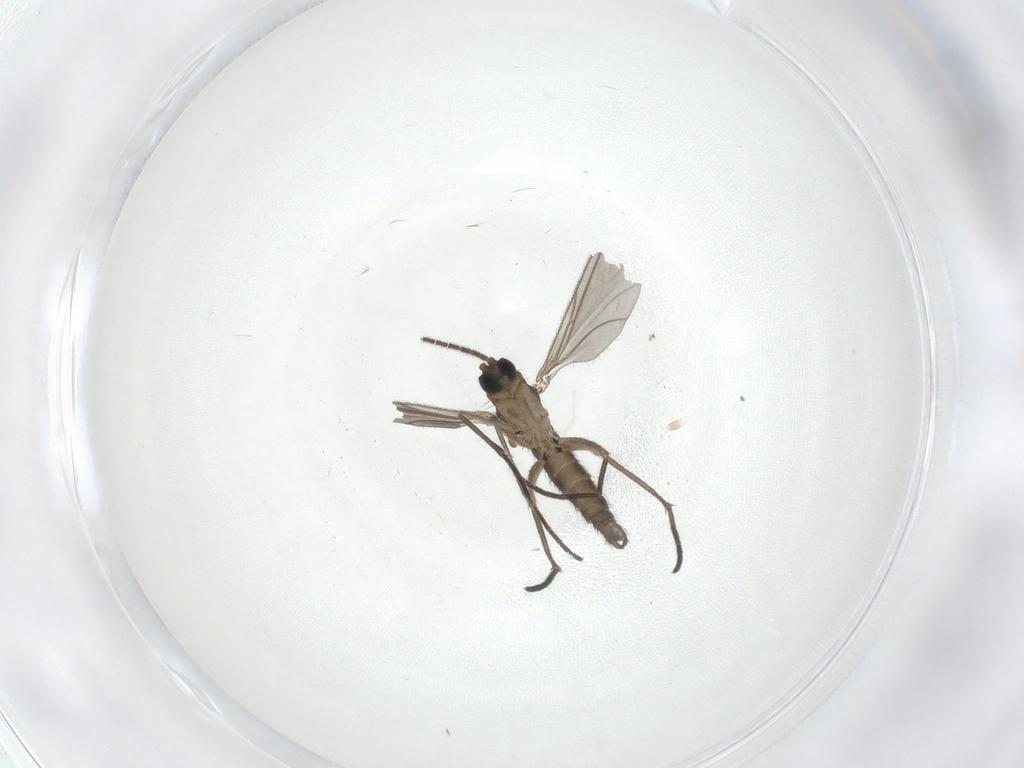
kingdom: Animalia
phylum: Arthropoda
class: Insecta
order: Diptera
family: Sciaridae
